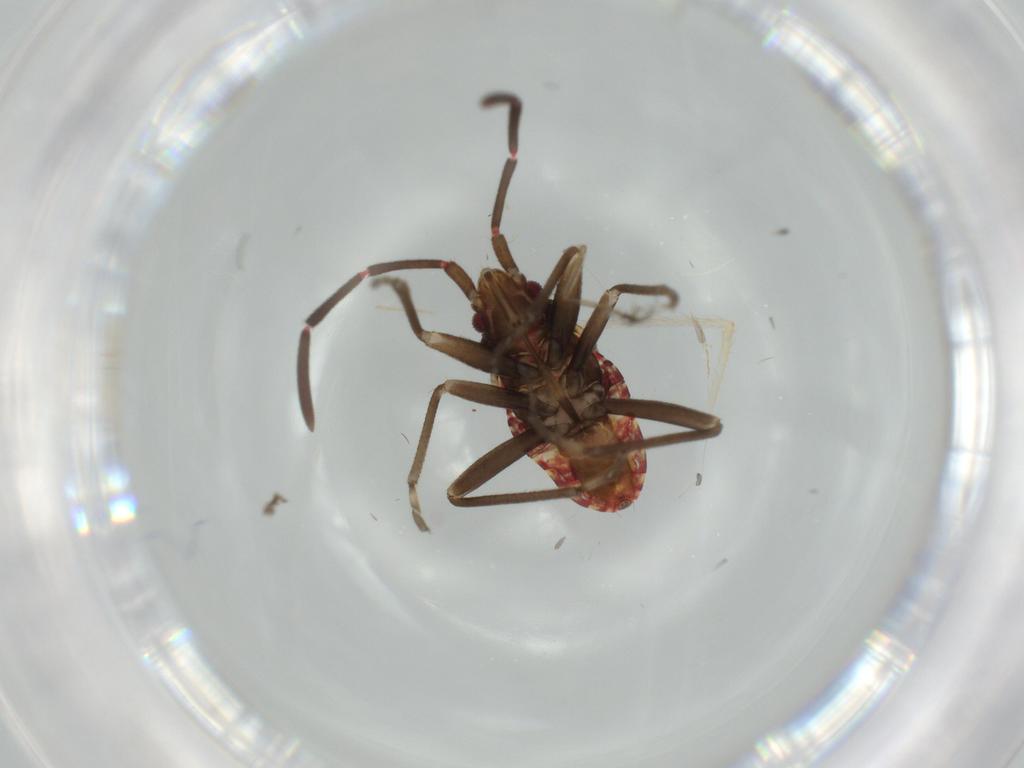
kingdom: Animalia
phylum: Arthropoda
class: Insecta
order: Hemiptera
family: Rhyparochromidae
